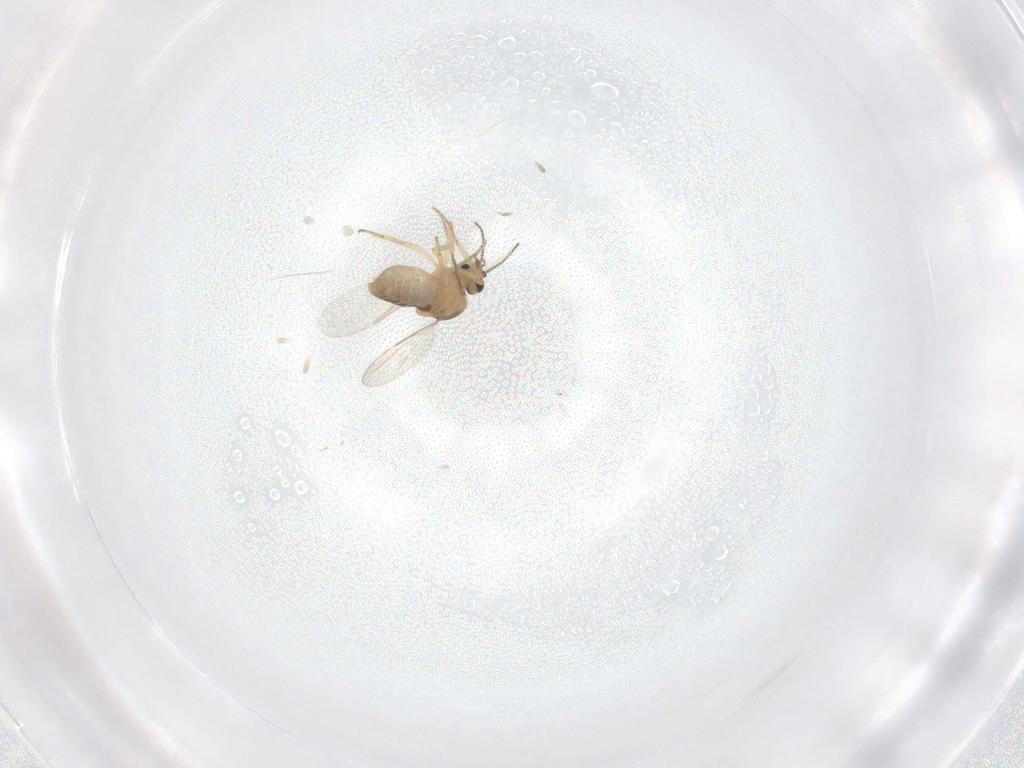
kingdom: Animalia
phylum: Arthropoda
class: Insecta
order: Diptera
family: Ceratopogonidae
